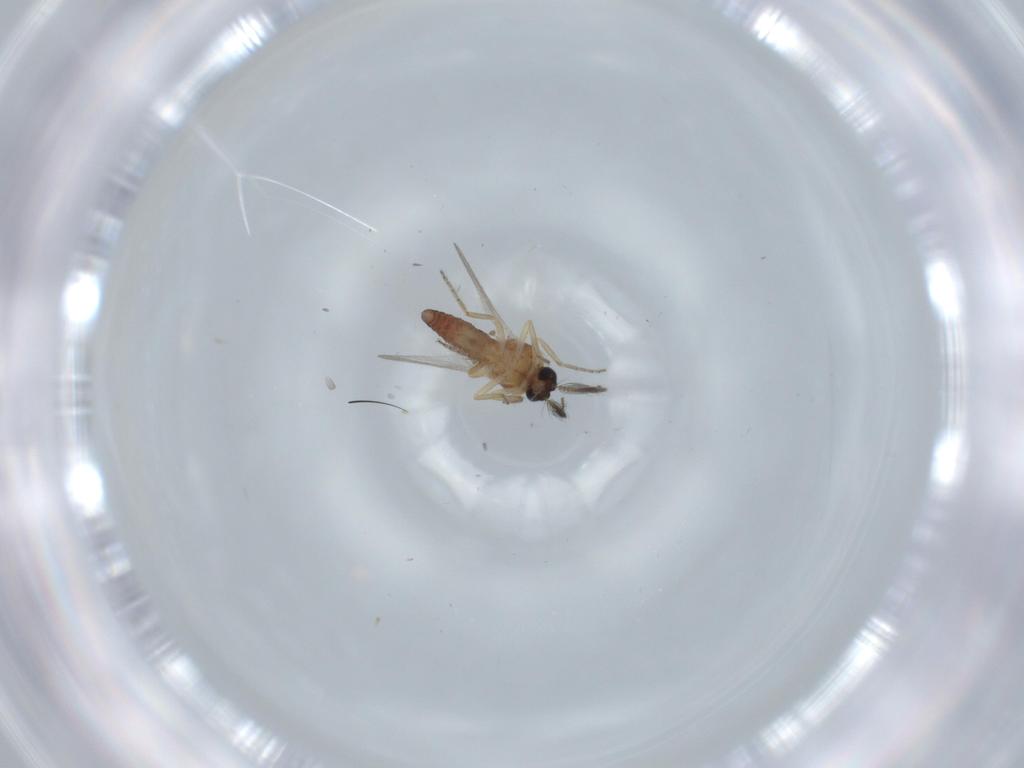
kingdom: Animalia
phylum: Arthropoda
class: Insecta
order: Diptera
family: Ceratopogonidae
